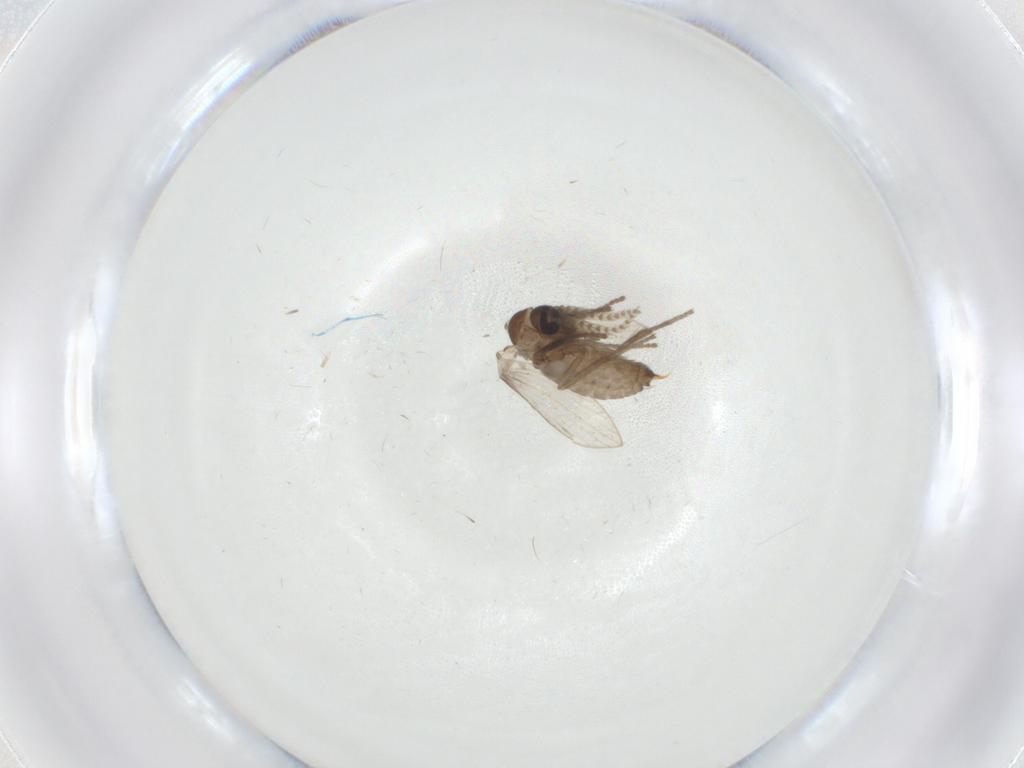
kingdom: Animalia
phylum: Arthropoda
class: Insecta
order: Diptera
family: Psychodidae
